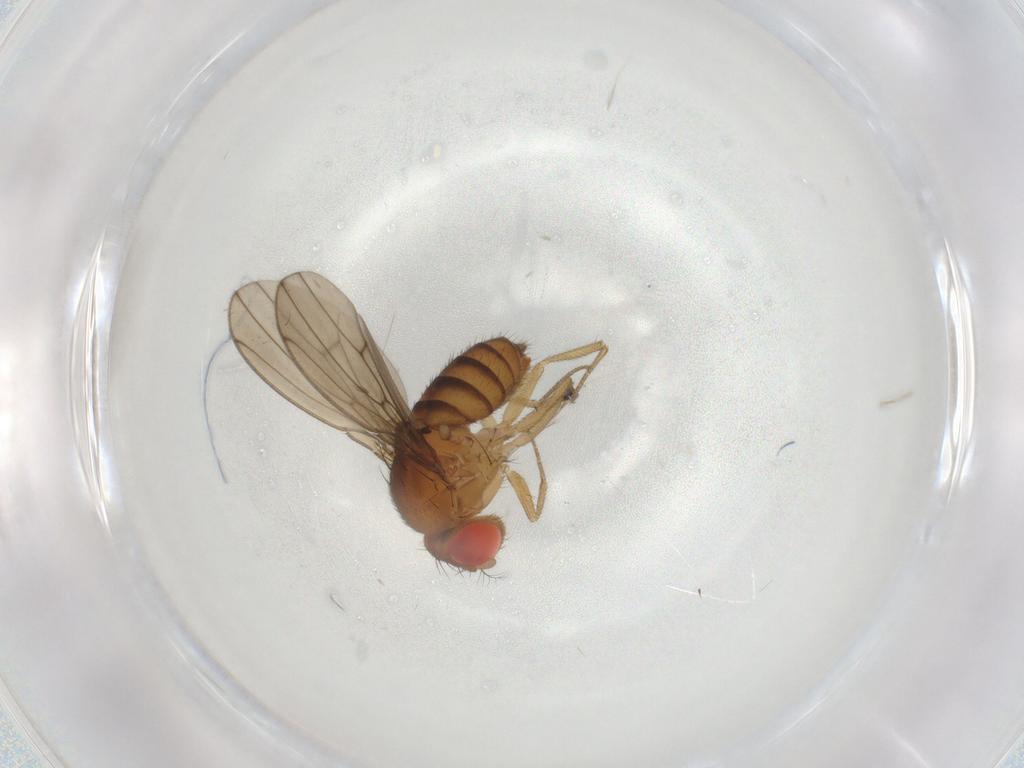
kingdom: Animalia
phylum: Arthropoda
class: Insecta
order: Diptera
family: Drosophilidae
